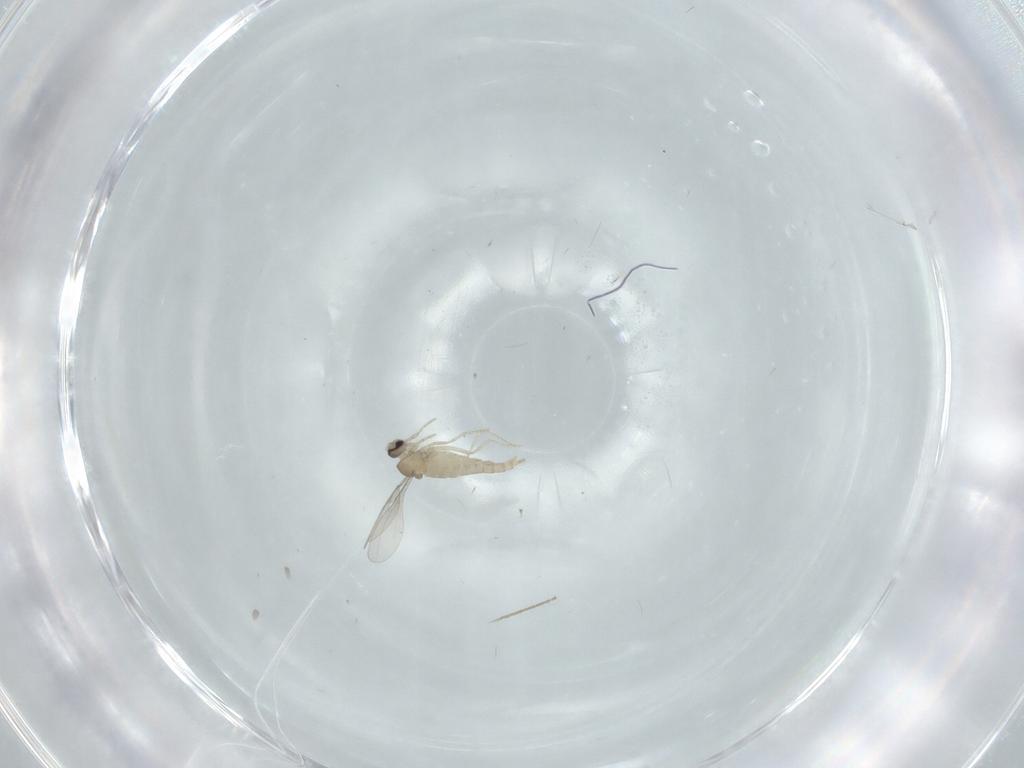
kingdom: Animalia
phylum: Arthropoda
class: Insecta
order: Diptera
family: Cecidomyiidae
